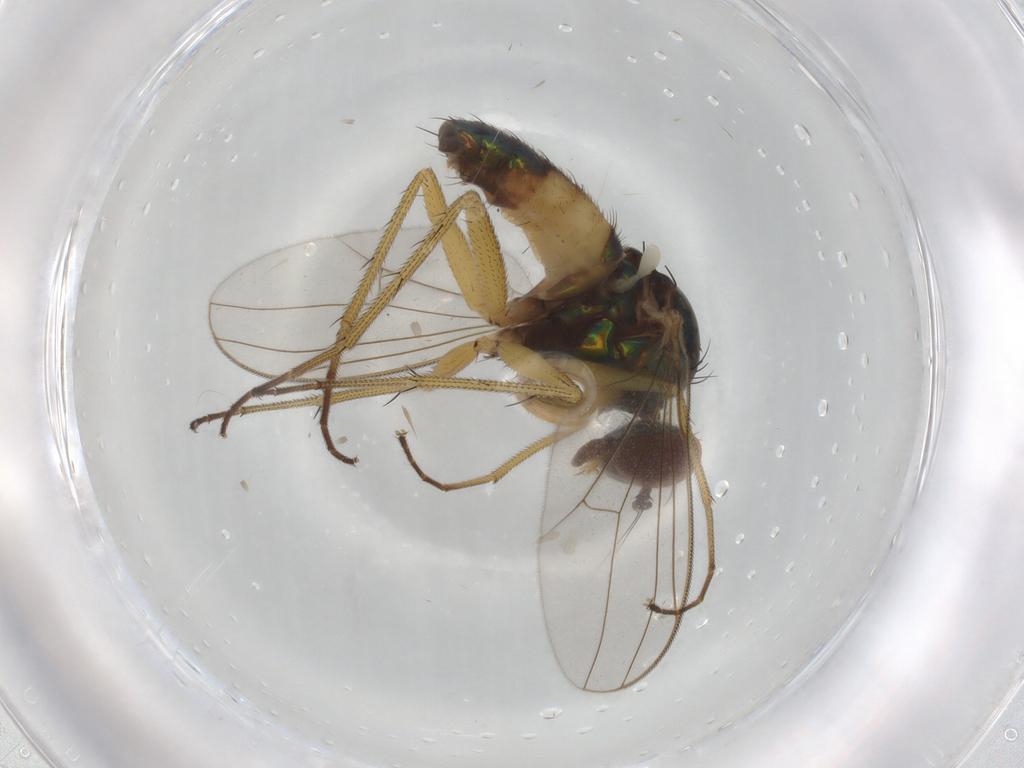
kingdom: Animalia
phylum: Arthropoda
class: Insecta
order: Diptera
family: Dolichopodidae
